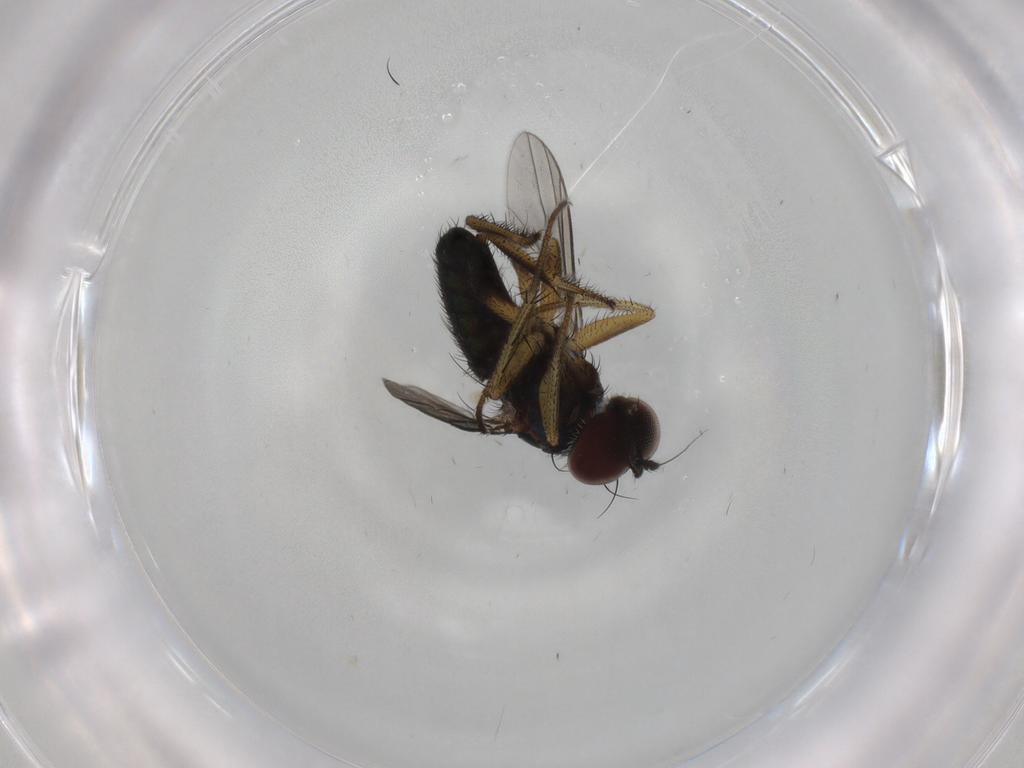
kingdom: Animalia
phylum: Arthropoda
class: Insecta
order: Diptera
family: Dolichopodidae
